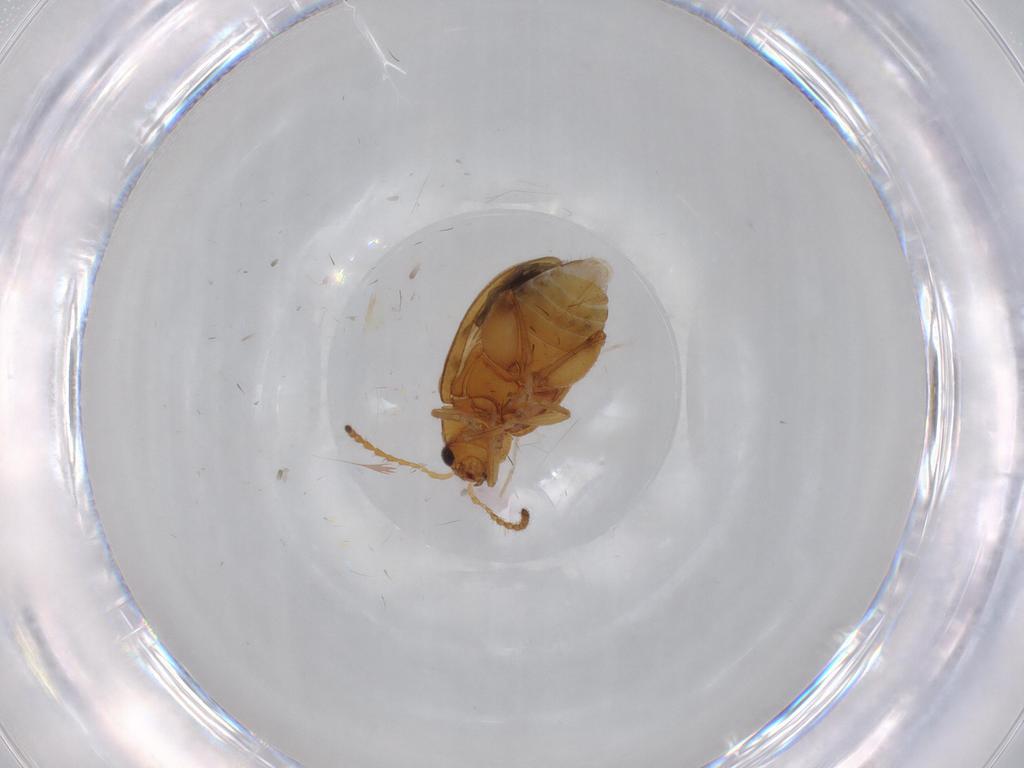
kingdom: Animalia
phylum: Arthropoda
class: Insecta
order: Coleoptera
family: Chrysomelidae
